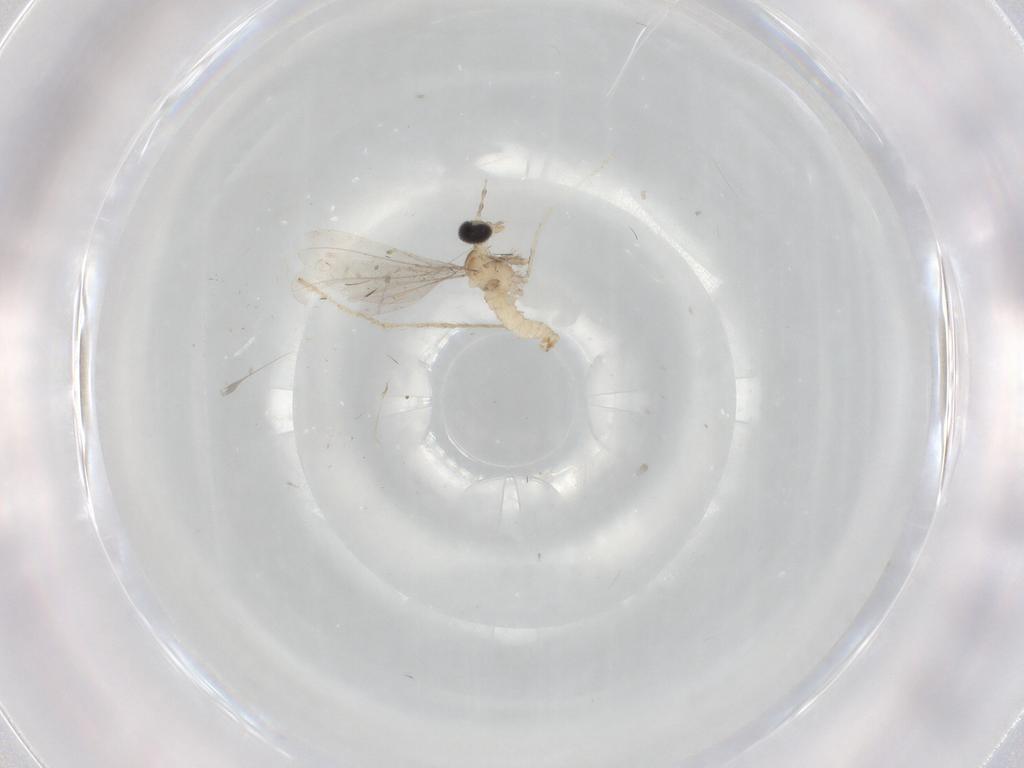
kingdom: Animalia
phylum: Arthropoda
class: Insecta
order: Diptera
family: Cecidomyiidae
